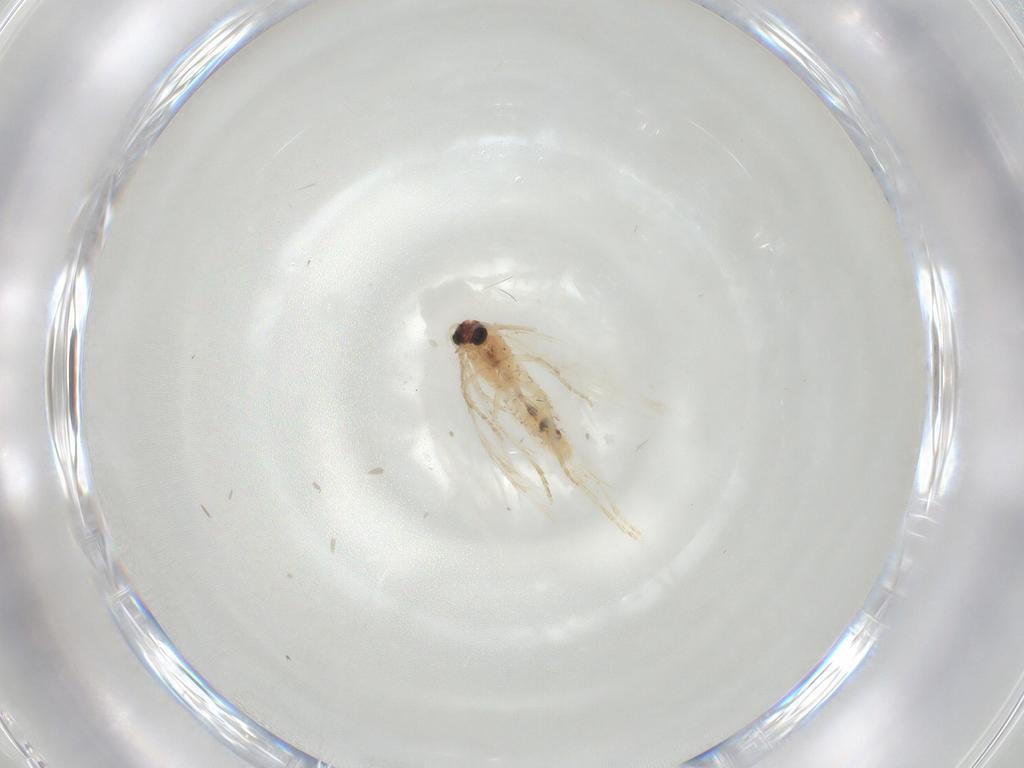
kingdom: Animalia
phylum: Arthropoda
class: Insecta
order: Lepidoptera
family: Nepticulidae
